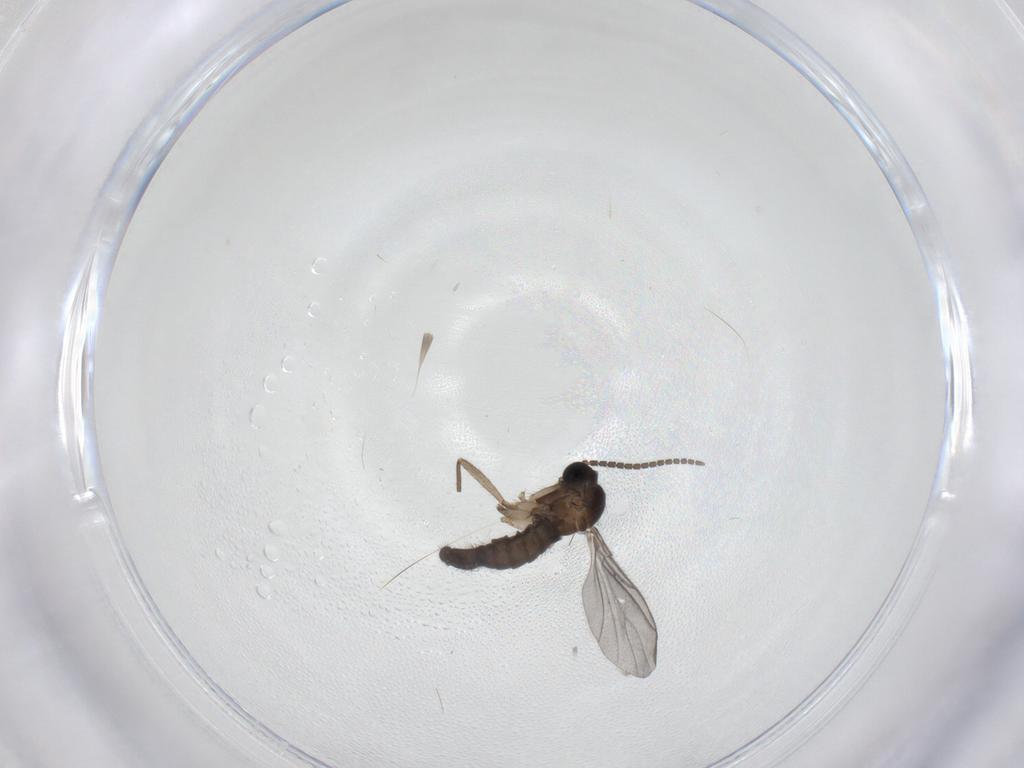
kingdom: Animalia
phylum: Arthropoda
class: Insecta
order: Diptera
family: Sciaridae
